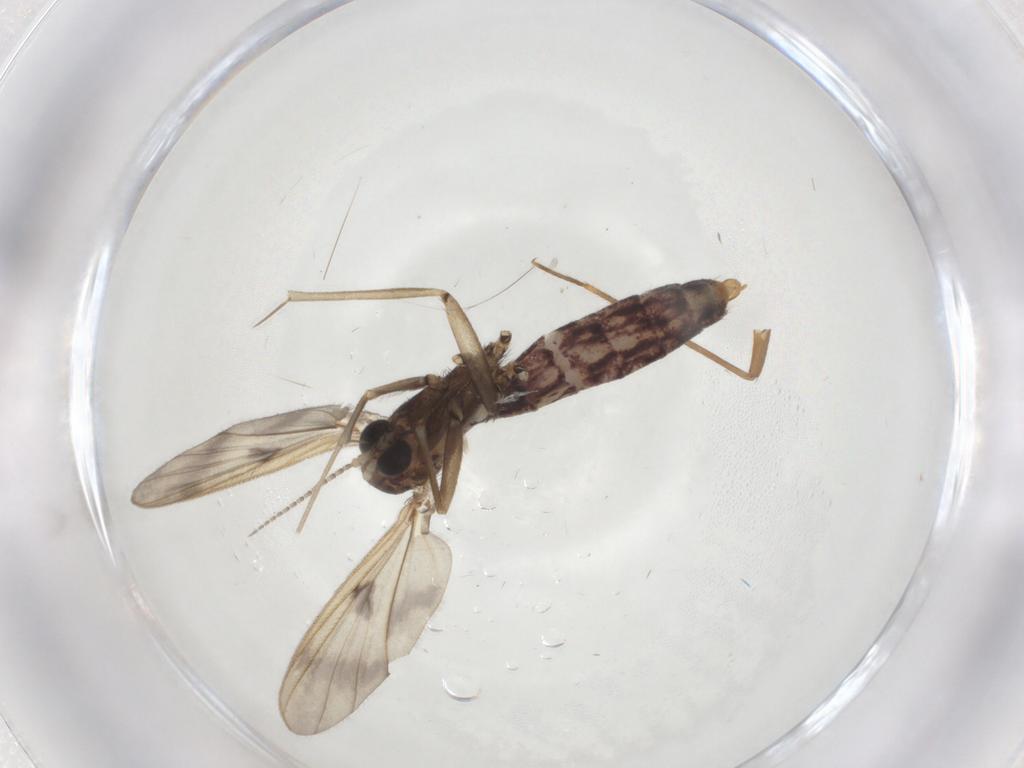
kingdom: Animalia
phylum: Arthropoda
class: Insecta
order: Diptera
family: Mycetophilidae
